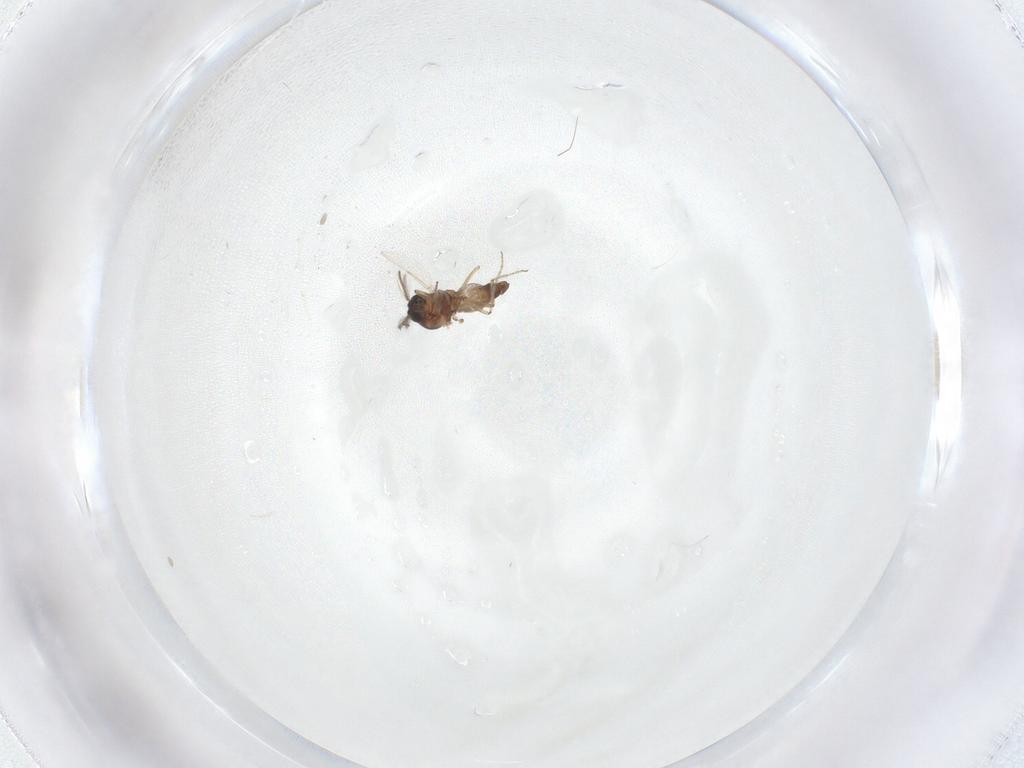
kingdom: Animalia
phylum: Arthropoda
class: Insecta
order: Diptera
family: Ceratopogonidae
